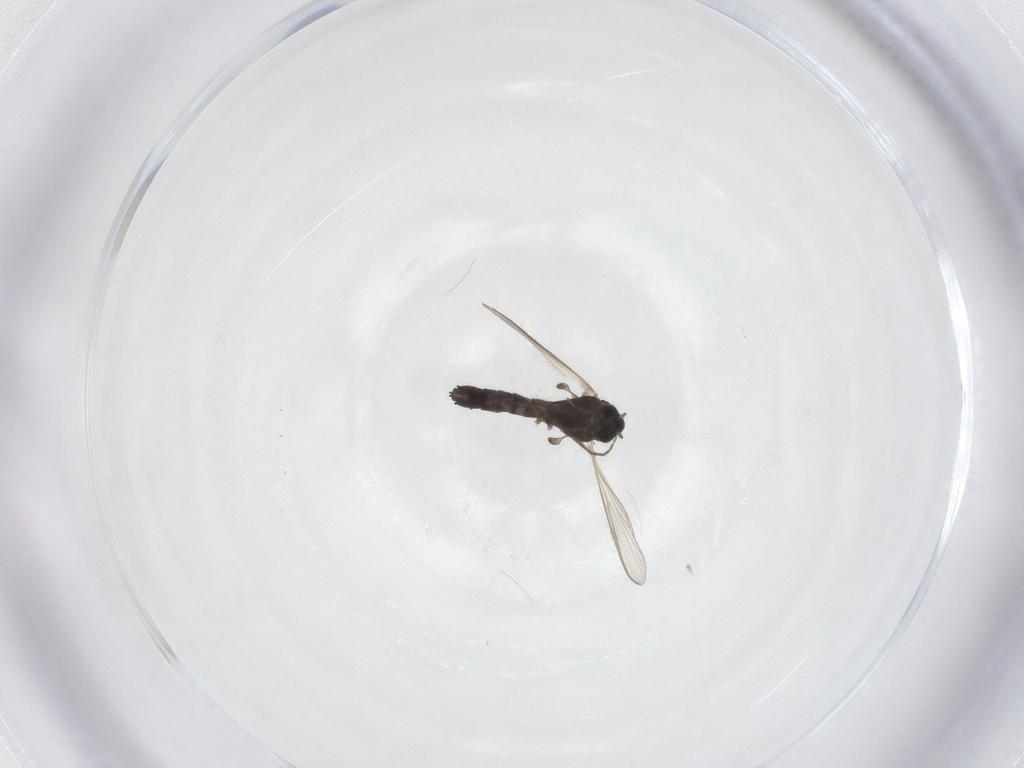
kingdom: Animalia
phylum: Arthropoda
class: Insecta
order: Diptera
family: Chironomidae
